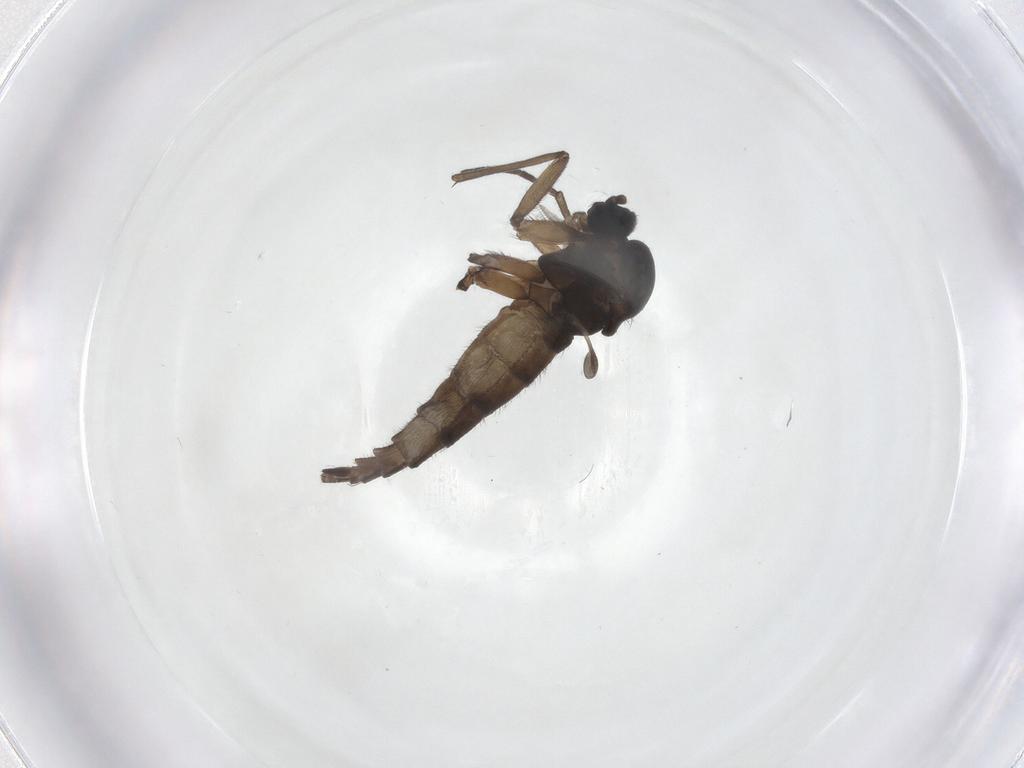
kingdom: Animalia
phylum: Arthropoda
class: Insecta
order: Diptera
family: Sciaridae
